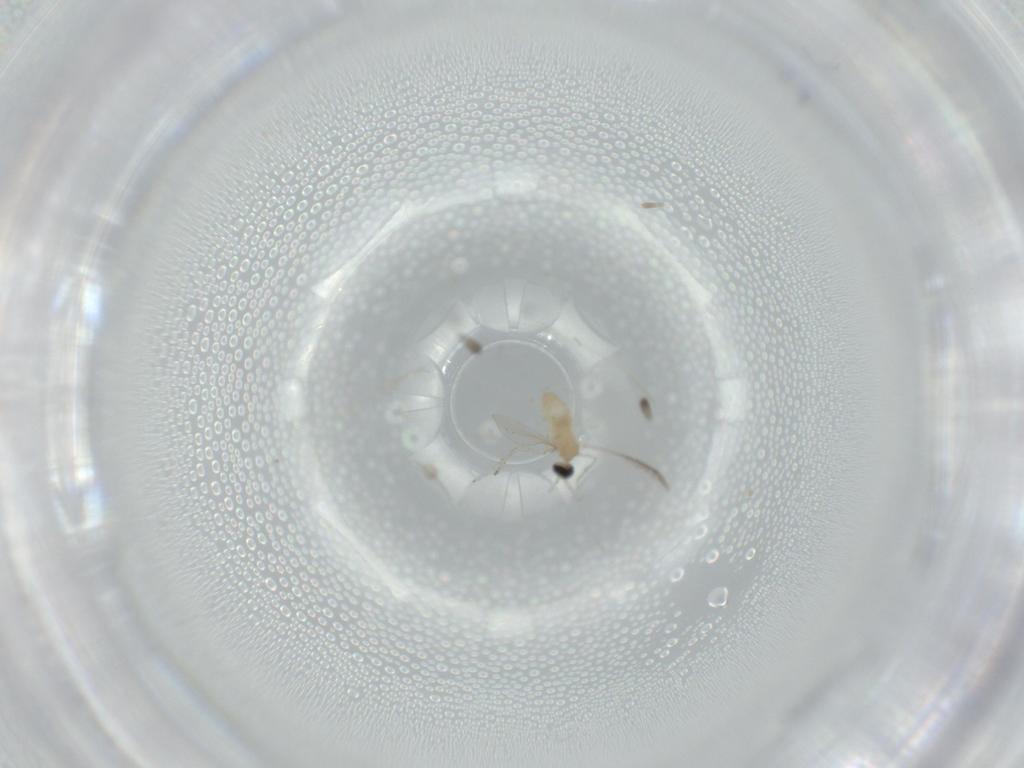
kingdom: Animalia
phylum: Arthropoda
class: Insecta
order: Diptera
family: Cecidomyiidae
